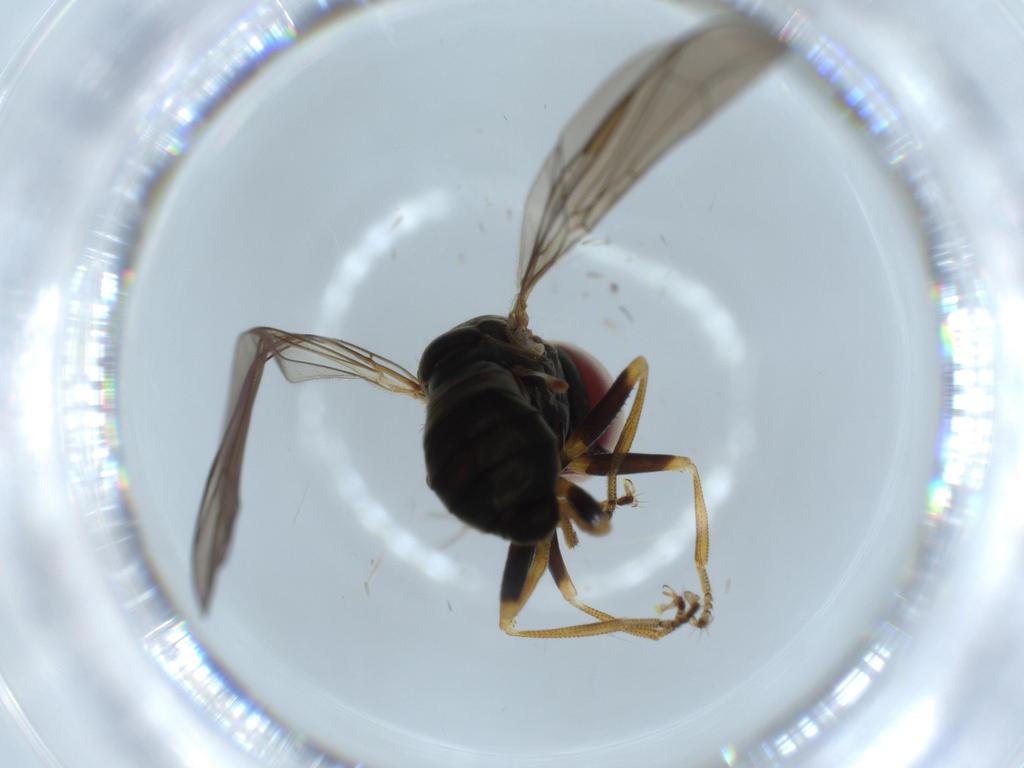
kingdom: Animalia
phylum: Arthropoda
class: Insecta
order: Diptera
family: Pipunculidae
